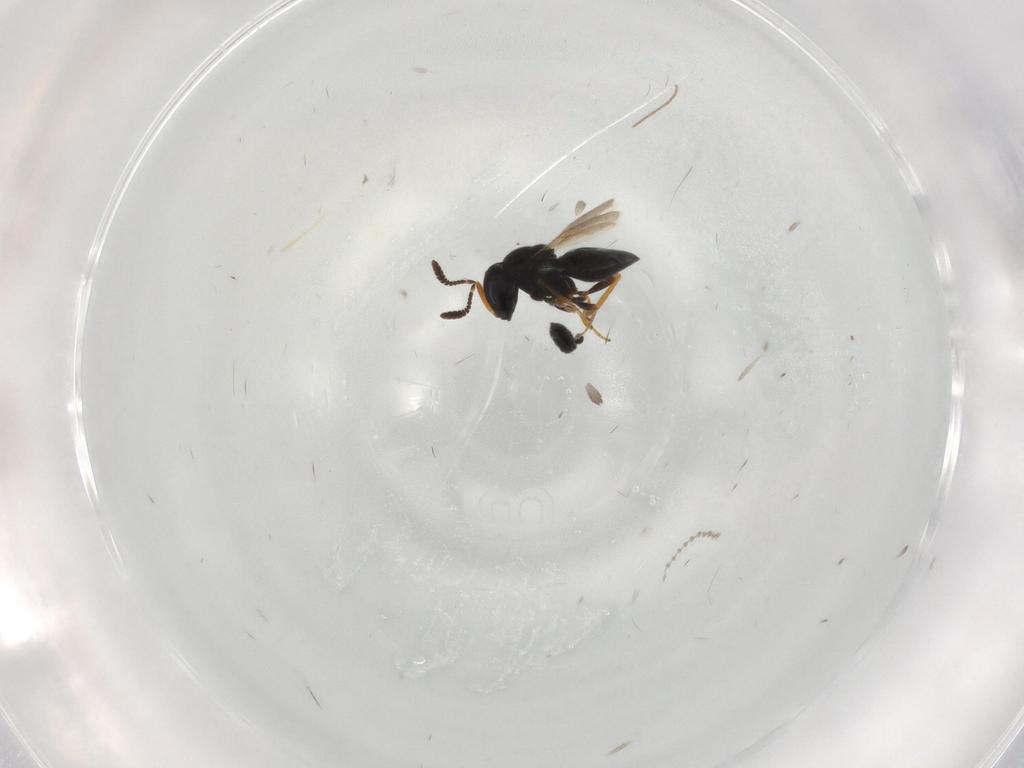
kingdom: Animalia
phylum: Arthropoda
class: Insecta
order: Hymenoptera
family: Scelionidae
